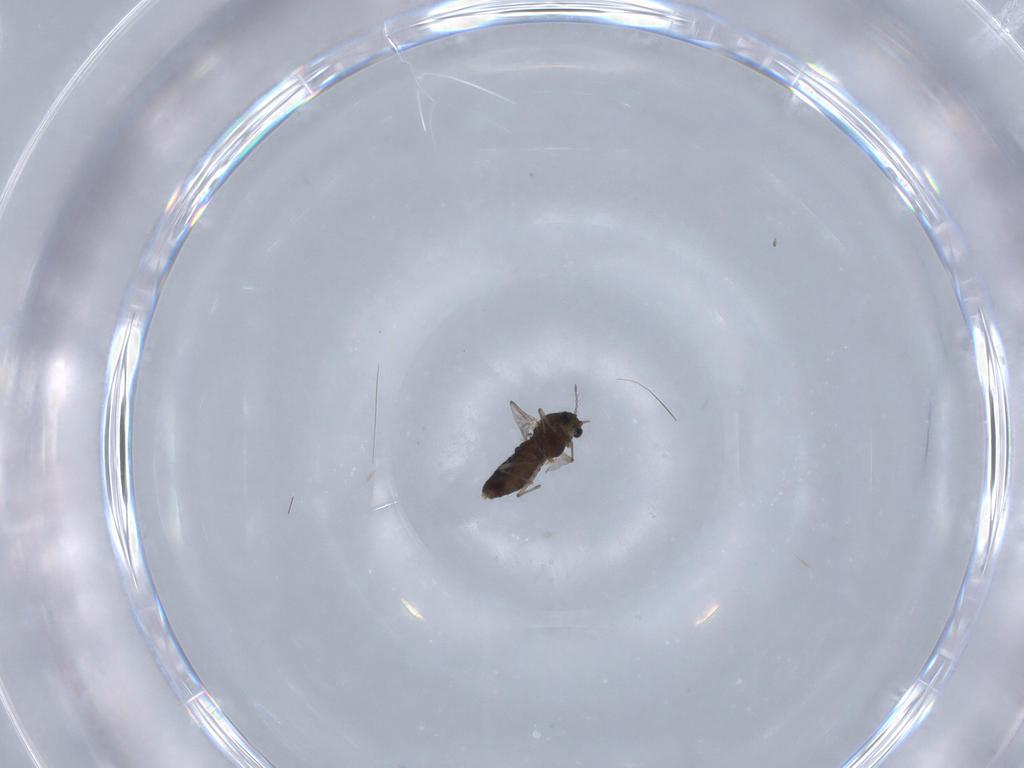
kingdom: Animalia
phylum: Arthropoda
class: Insecta
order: Diptera
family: Chironomidae
